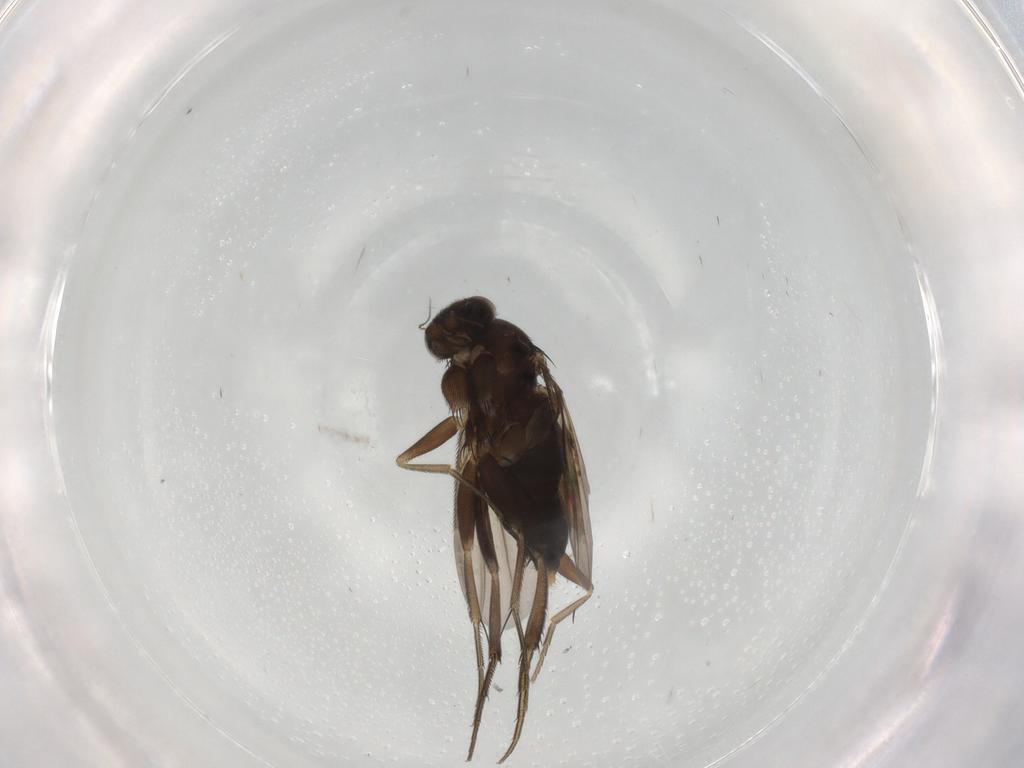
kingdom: Animalia
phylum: Arthropoda
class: Insecta
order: Diptera
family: Phoridae
